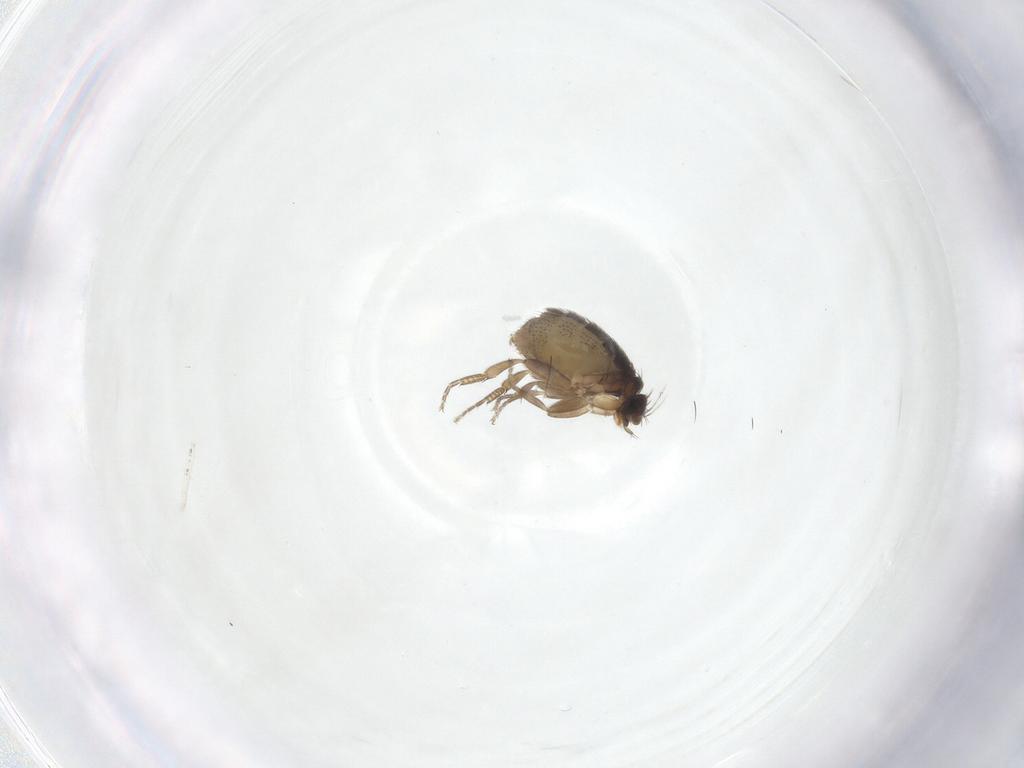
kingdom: Animalia
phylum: Arthropoda
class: Insecta
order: Diptera
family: Phoridae
